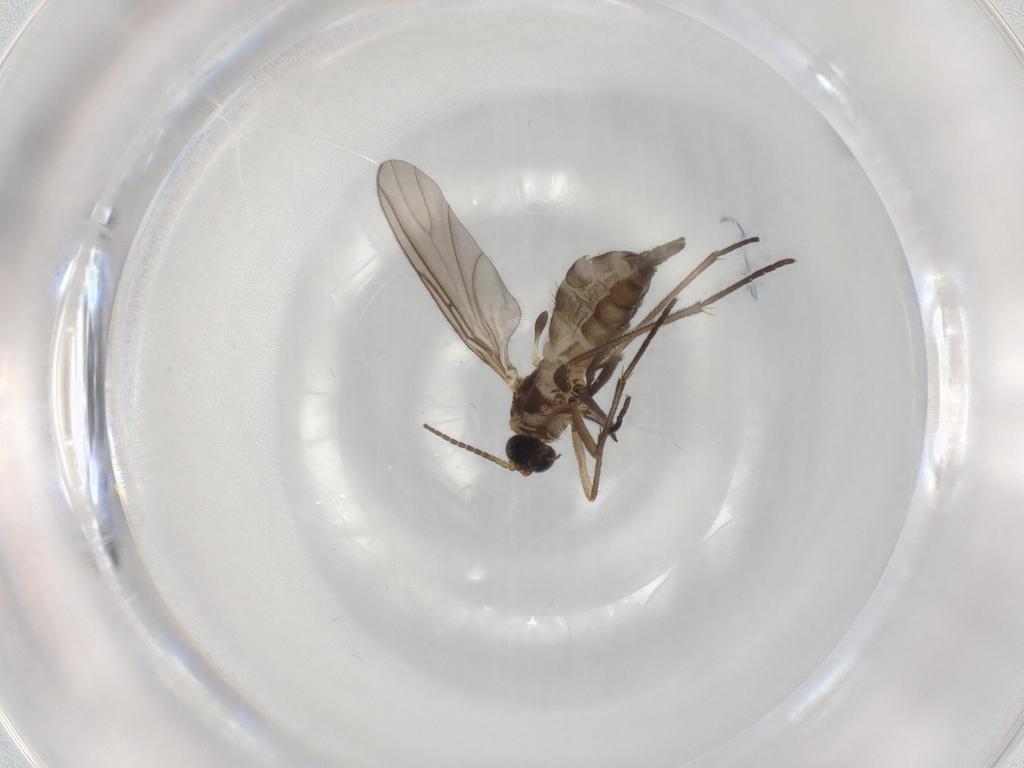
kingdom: Animalia
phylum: Arthropoda
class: Insecta
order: Diptera
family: Sciaridae
